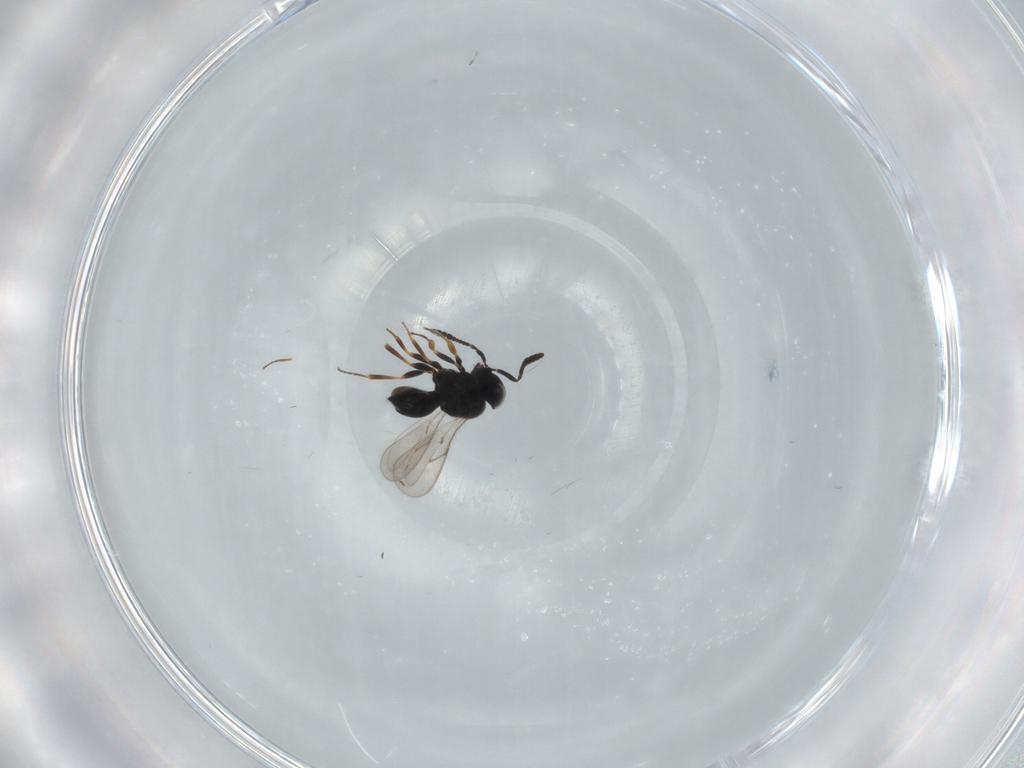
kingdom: Animalia
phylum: Arthropoda
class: Insecta
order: Hymenoptera
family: Scelionidae
